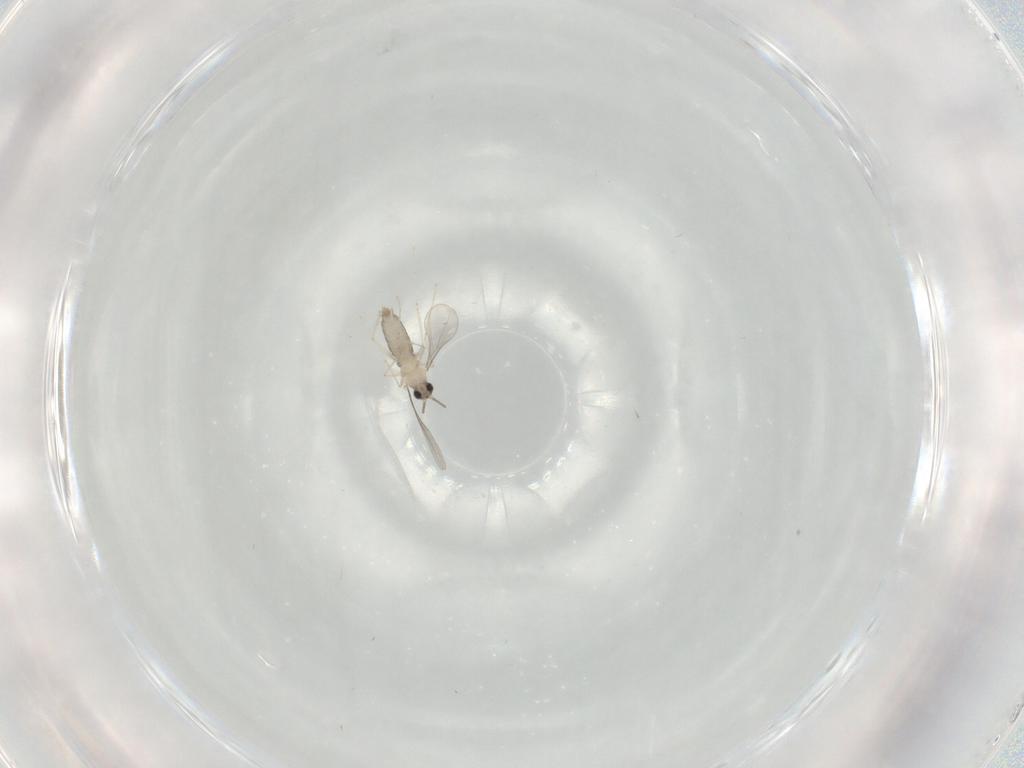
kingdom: Animalia
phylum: Arthropoda
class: Insecta
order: Diptera
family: Cecidomyiidae
